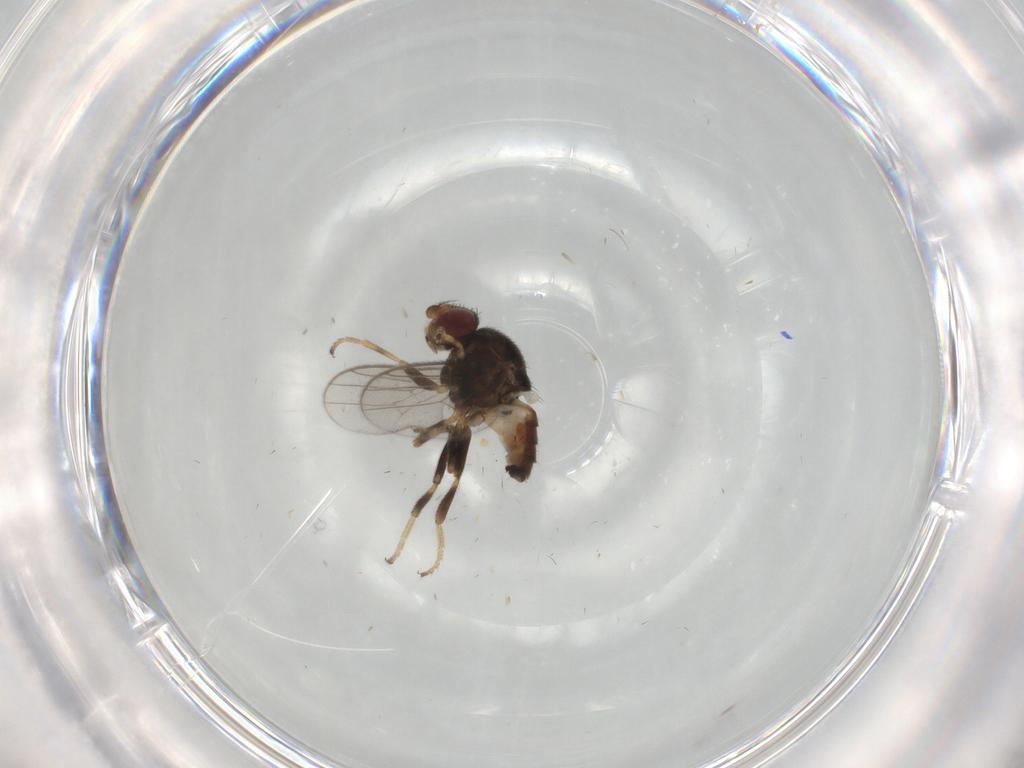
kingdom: Animalia
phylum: Arthropoda
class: Insecta
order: Diptera
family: Chloropidae
